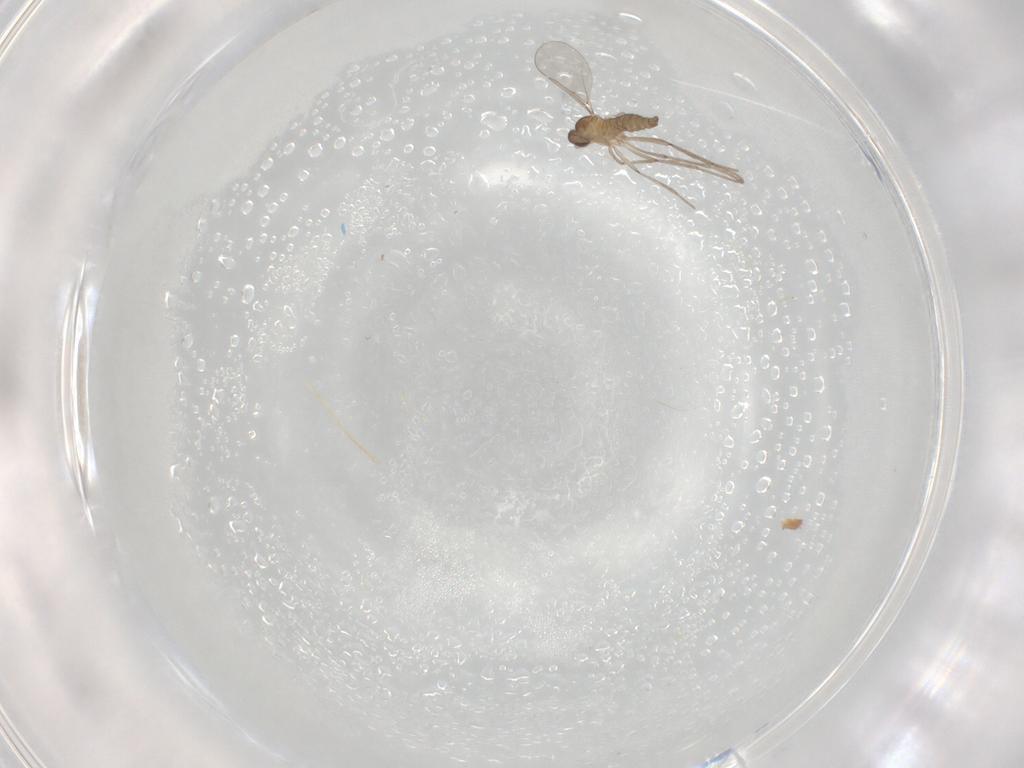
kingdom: Animalia
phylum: Arthropoda
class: Insecta
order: Diptera
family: Cecidomyiidae
